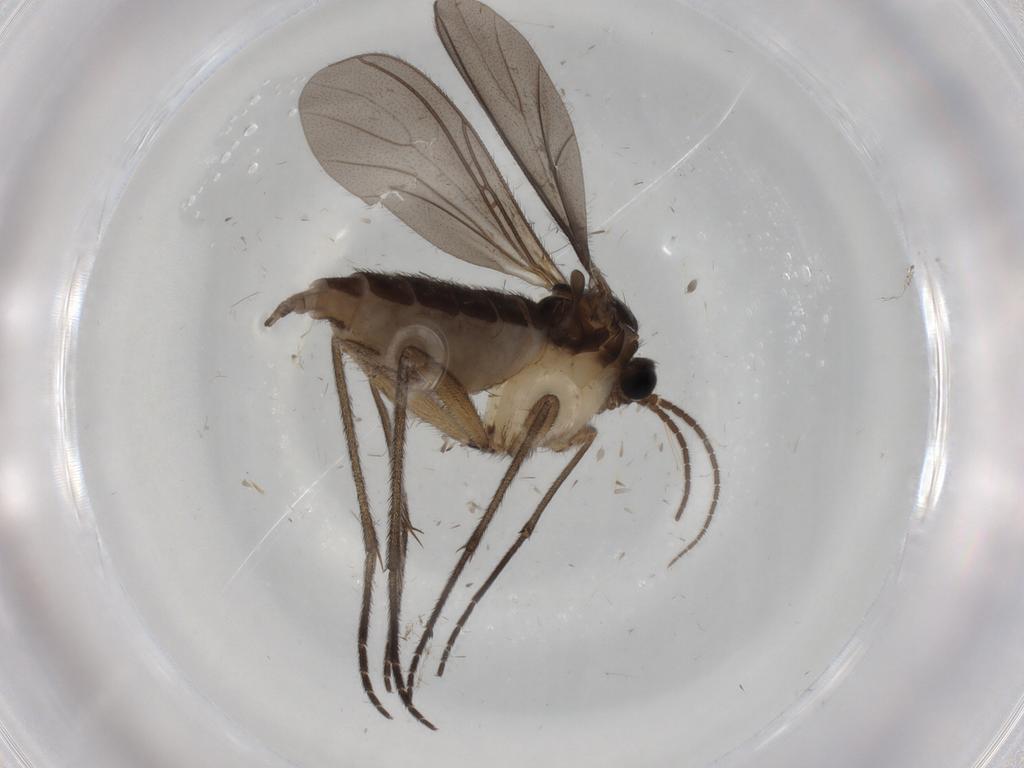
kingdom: Animalia
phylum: Arthropoda
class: Insecta
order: Diptera
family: Sciaridae
